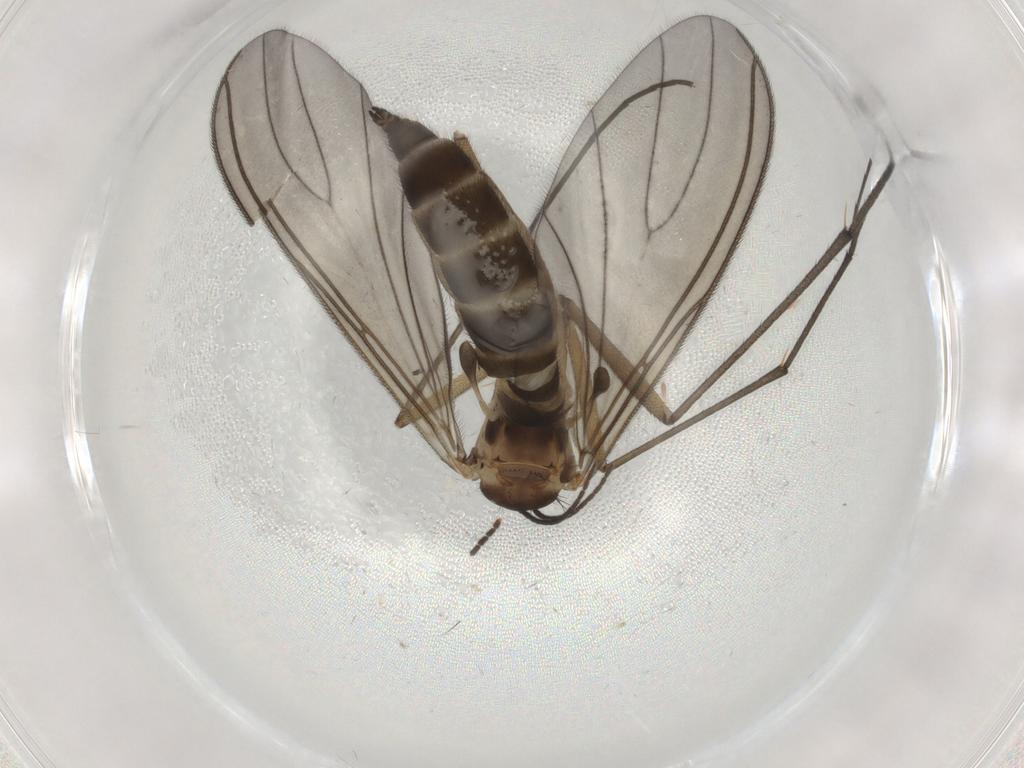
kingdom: Animalia
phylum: Arthropoda
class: Insecta
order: Diptera
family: Sciaridae
